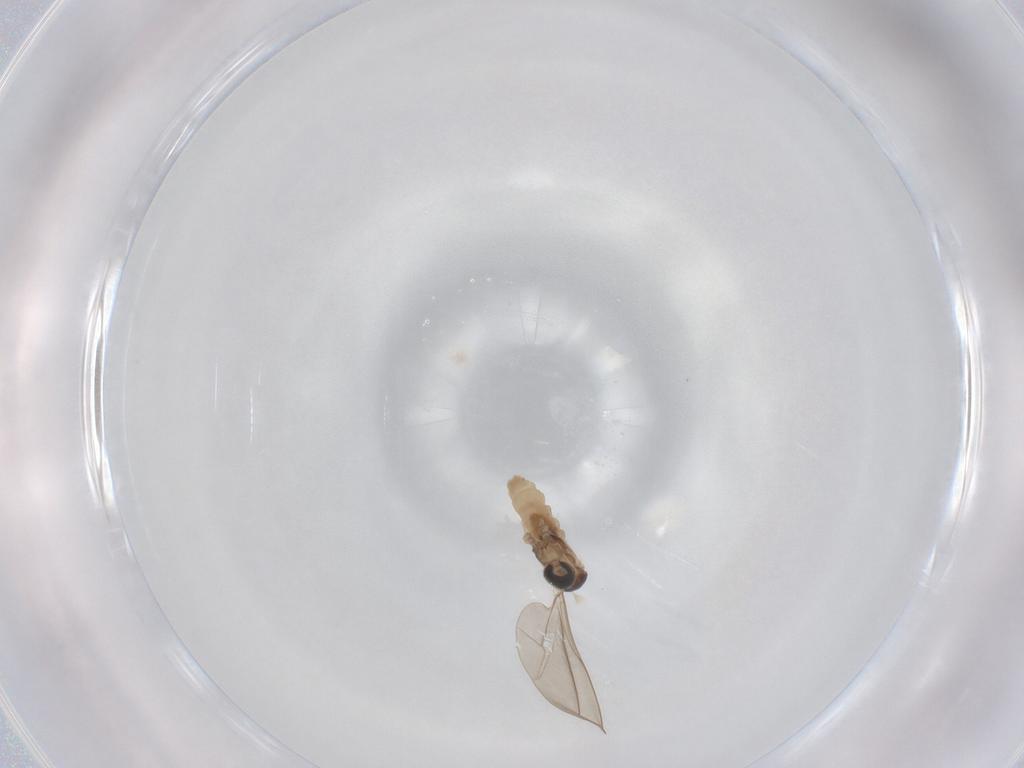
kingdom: Animalia
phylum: Arthropoda
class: Insecta
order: Diptera
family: Cecidomyiidae
